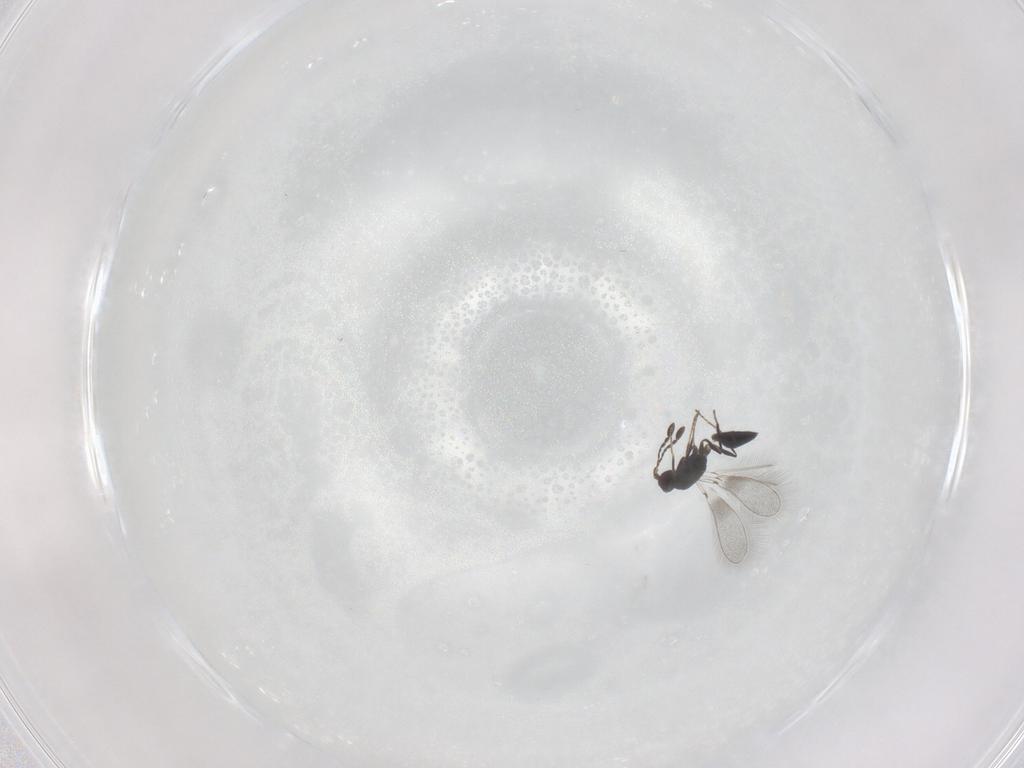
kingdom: Animalia
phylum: Arthropoda
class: Insecta
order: Hymenoptera
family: Mymaridae
